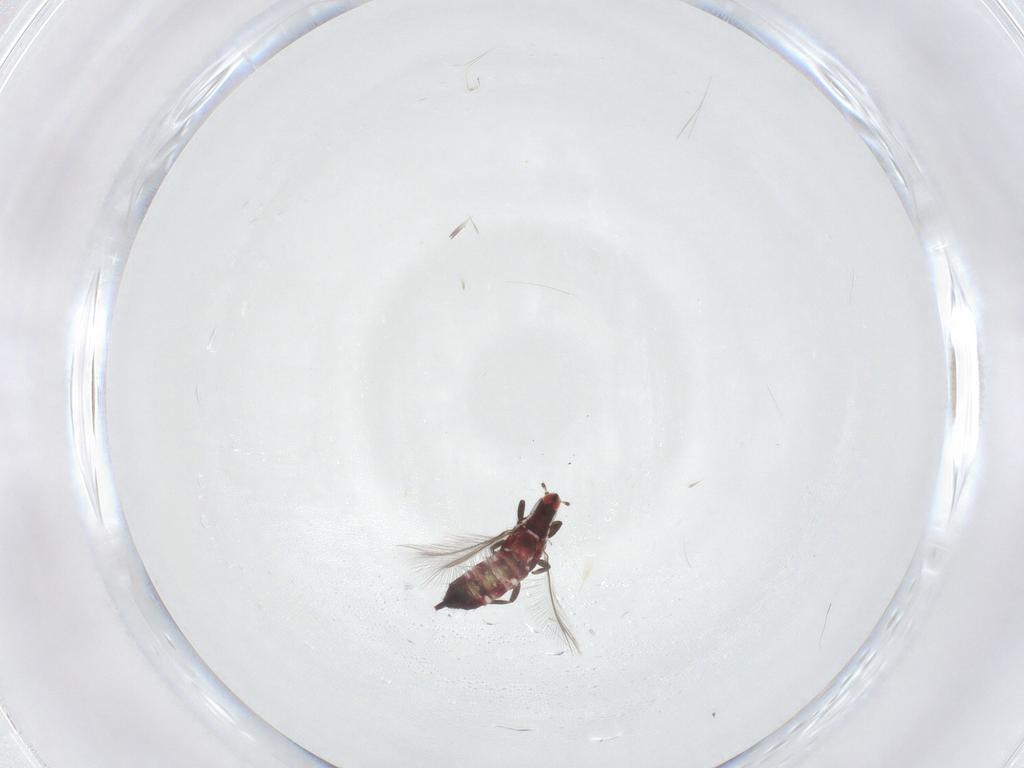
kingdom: Animalia
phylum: Arthropoda
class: Insecta
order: Thysanoptera
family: Phlaeothripidae
